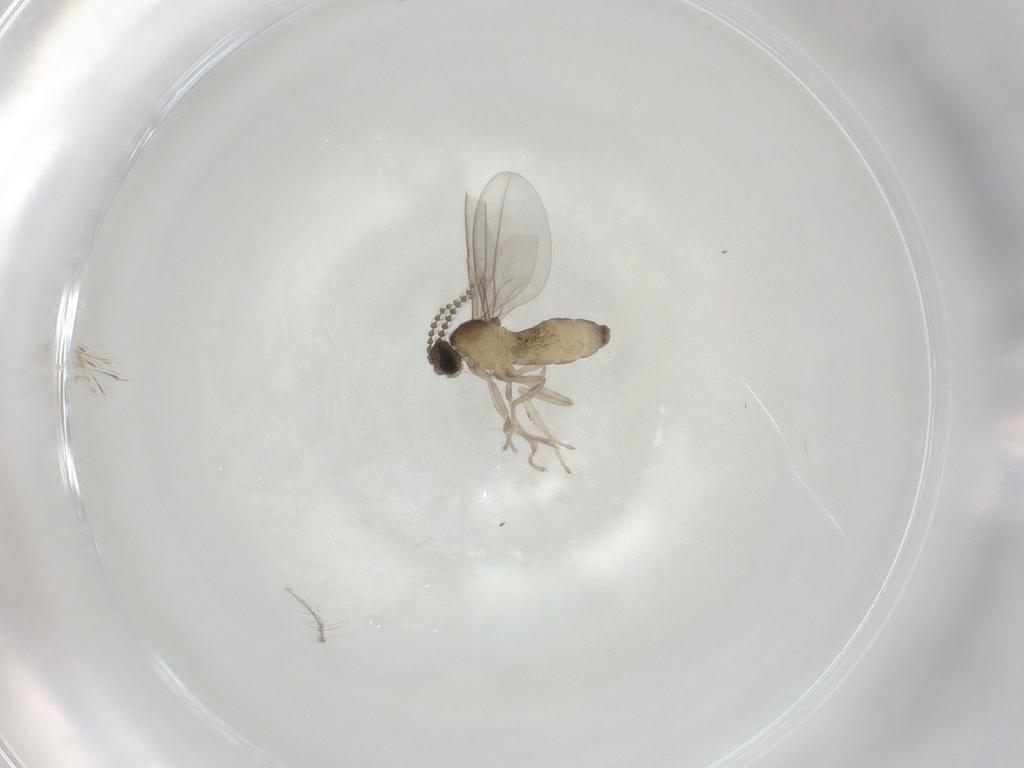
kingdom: Animalia
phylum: Arthropoda
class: Insecta
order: Diptera
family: Cecidomyiidae
